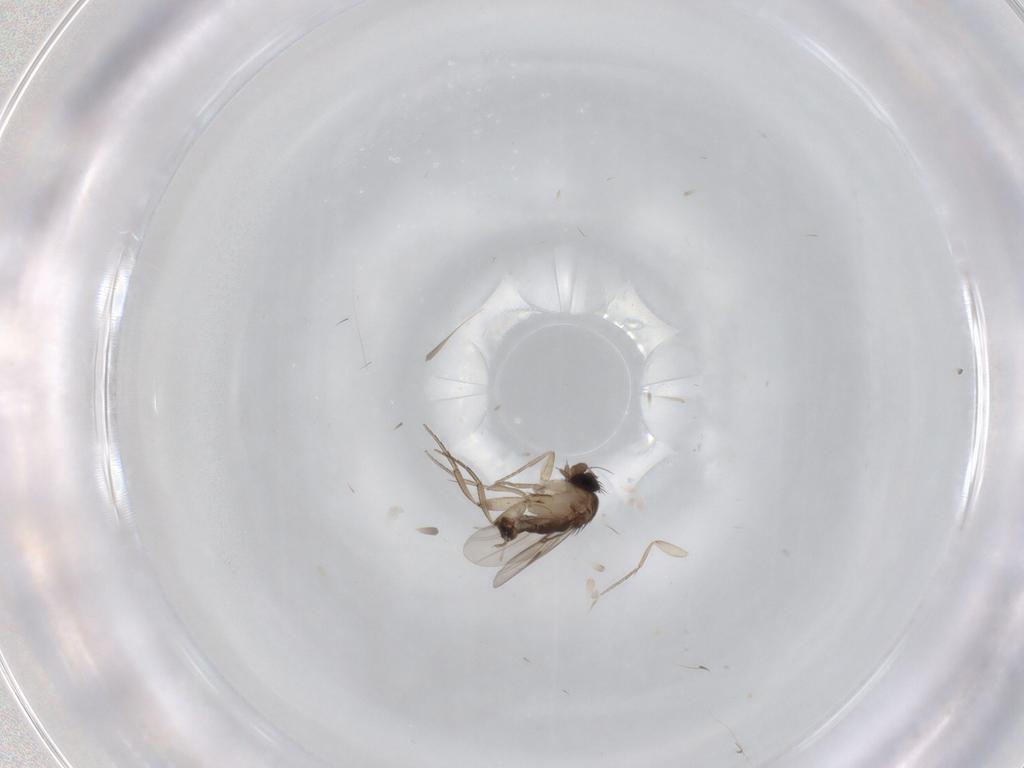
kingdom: Animalia
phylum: Arthropoda
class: Insecta
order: Diptera
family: Phoridae
